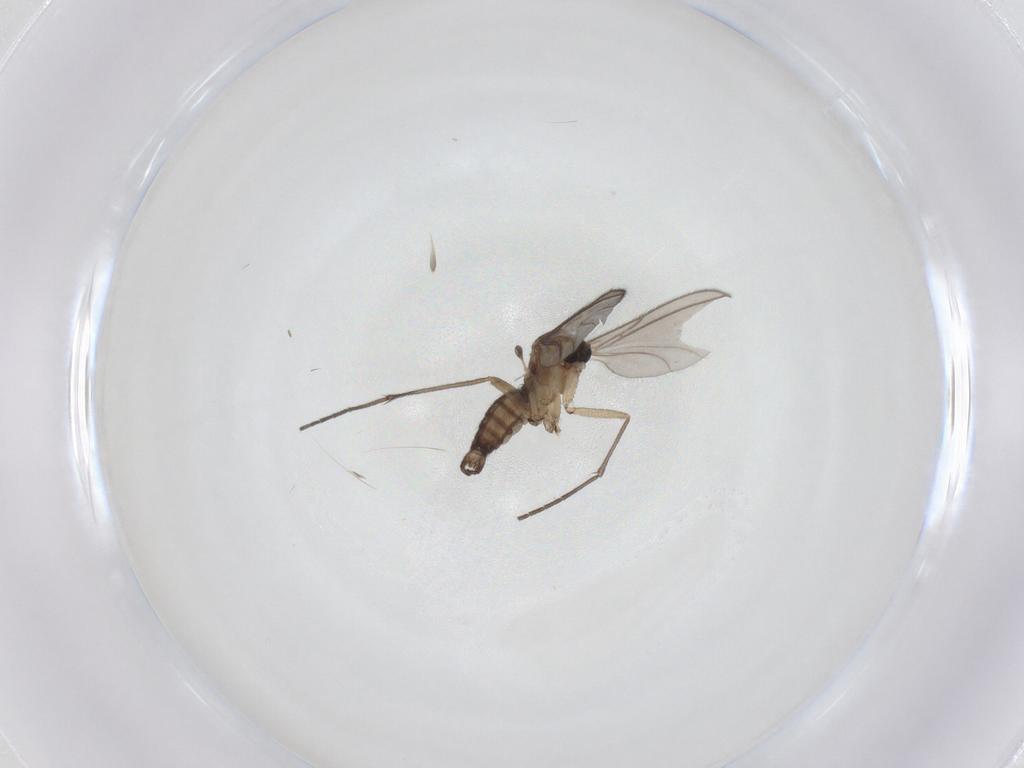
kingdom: Animalia
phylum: Arthropoda
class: Insecta
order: Diptera
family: Sciaridae
